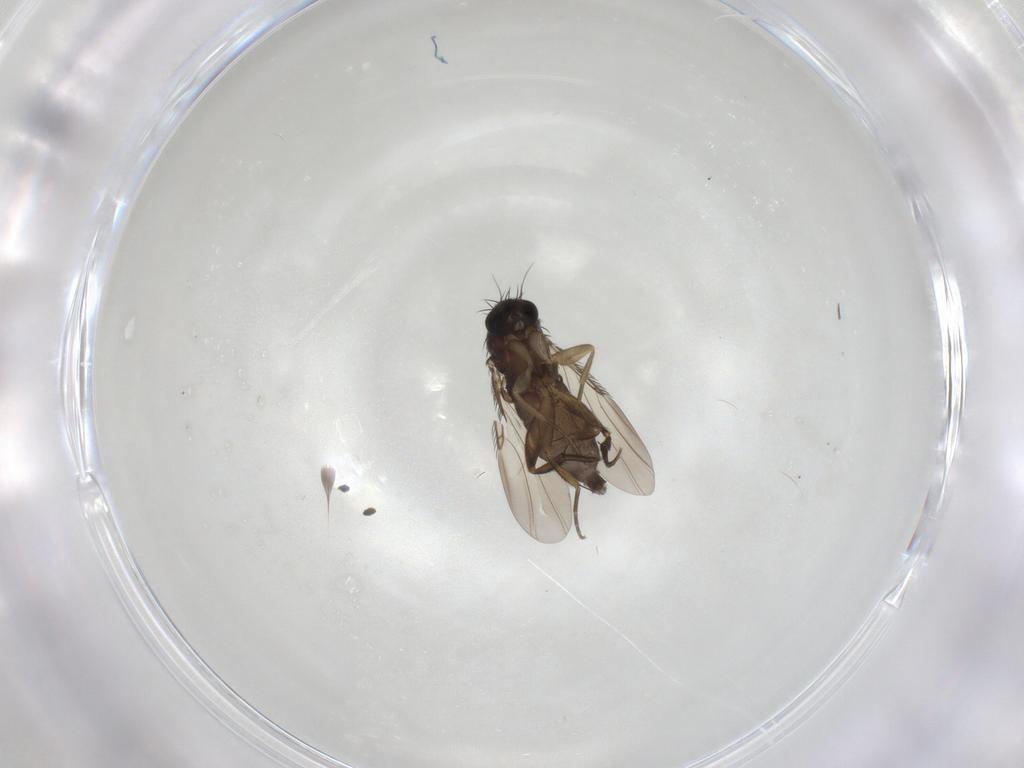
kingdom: Animalia
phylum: Arthropoda
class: Insecta
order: Diptera
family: Phoridae
